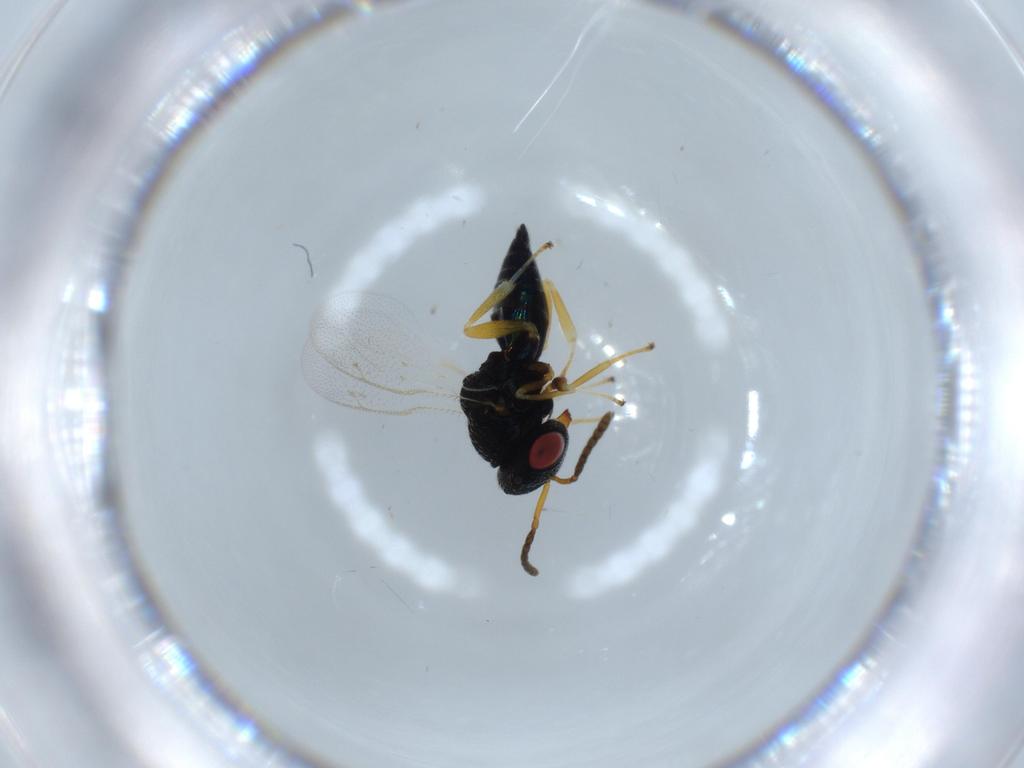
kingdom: Animalia
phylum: Arthropoda
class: Insecta
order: Hymenoptera
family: Pteromalidae
